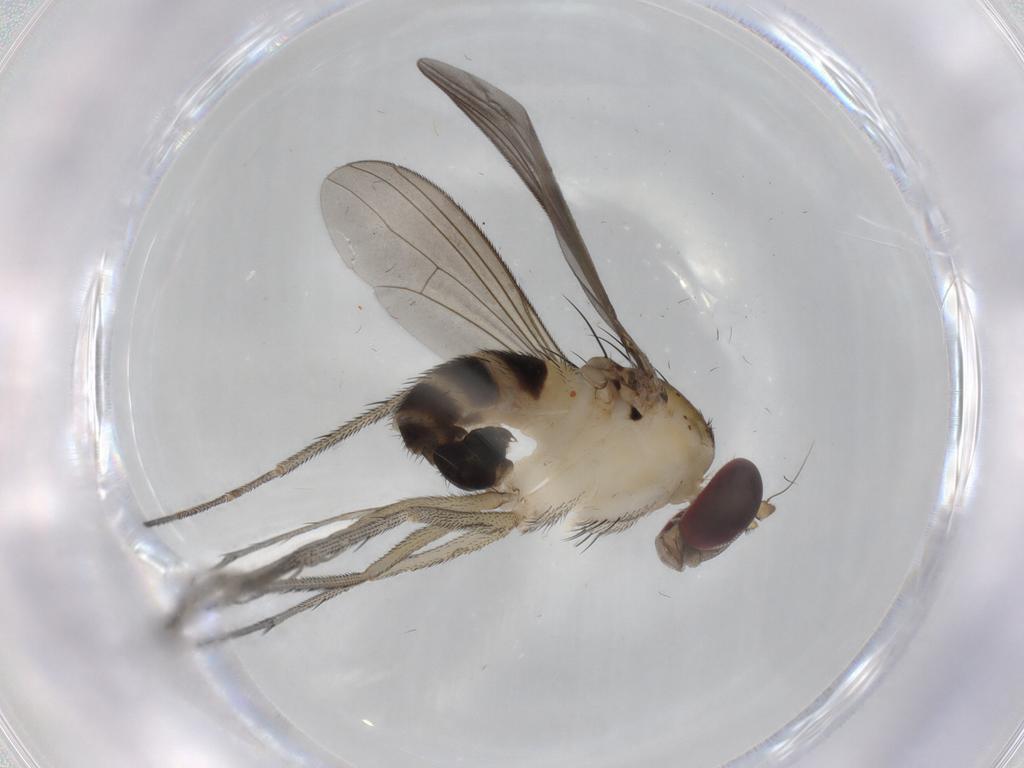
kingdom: Animalia
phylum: Arthropoda
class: Insecta
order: Diptera
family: Dolichopodidae
